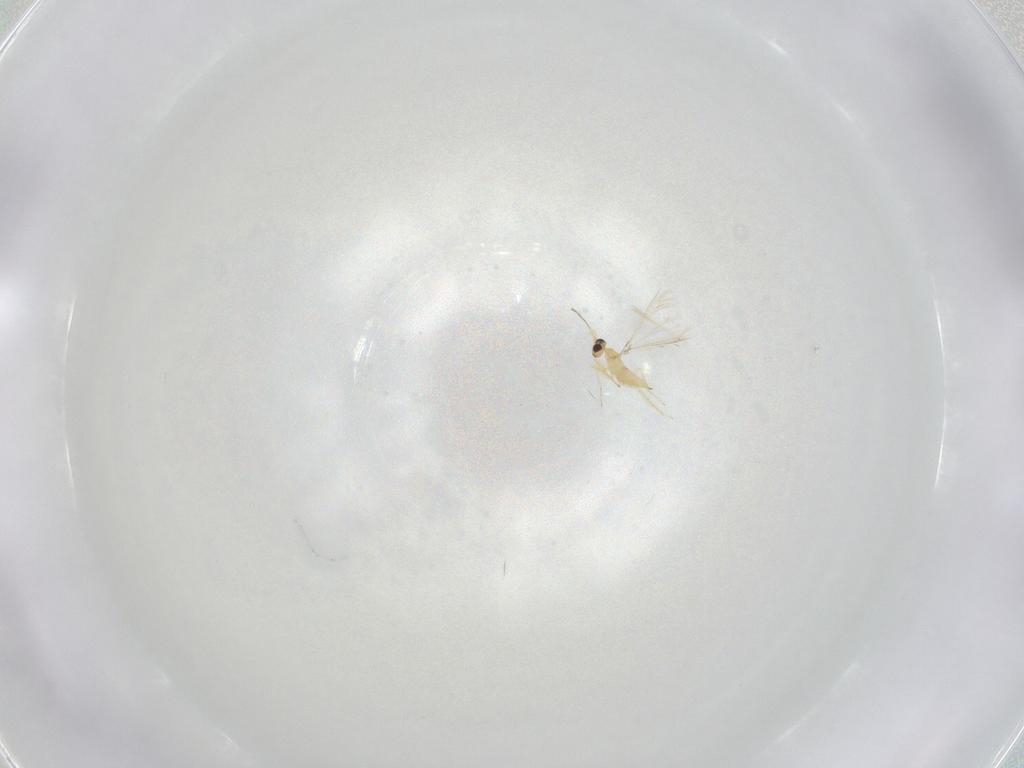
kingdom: Animalia
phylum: Arthropoda
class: Insecta
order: Hymenoptera
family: Mymaridae
